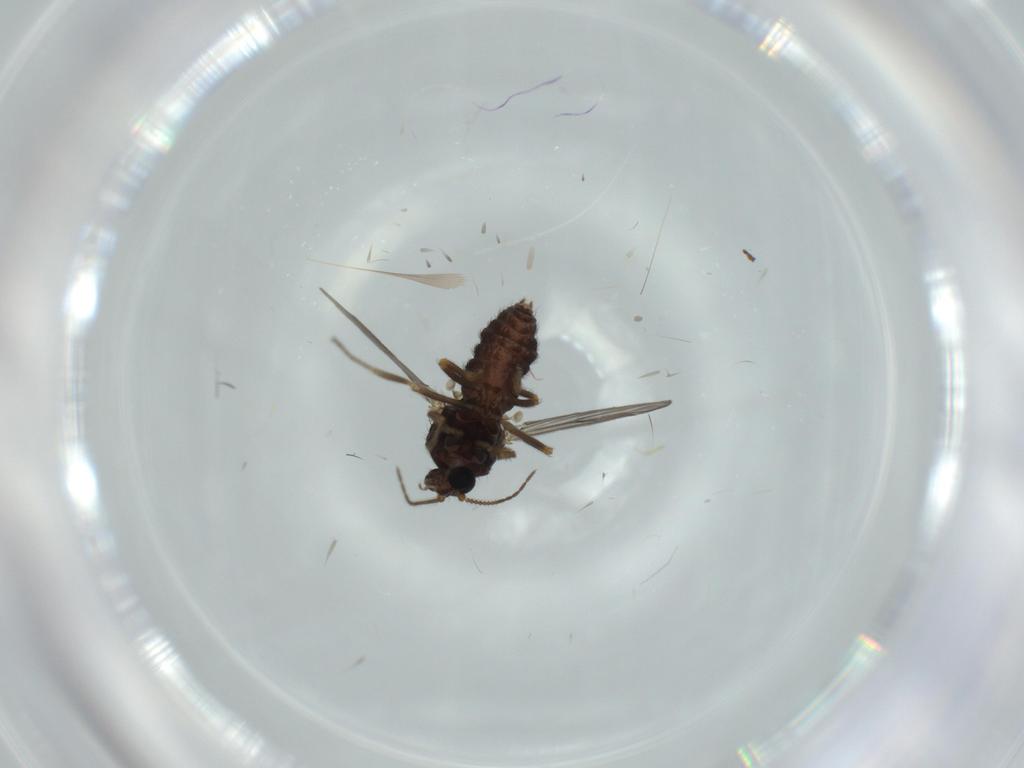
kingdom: Animalia
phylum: Arthropoda
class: Insecta
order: Diptera
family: Ceratopogonidae
